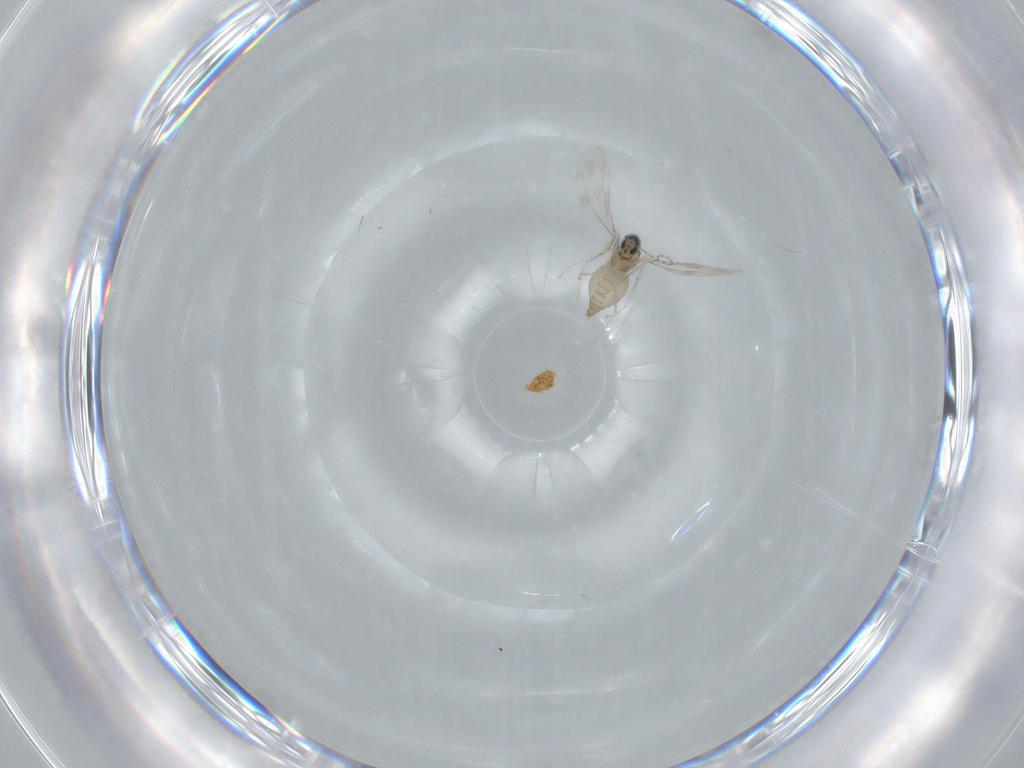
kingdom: Animalia
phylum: Arthropoda
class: Insecta
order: Diptera
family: Cecidomyiidae
